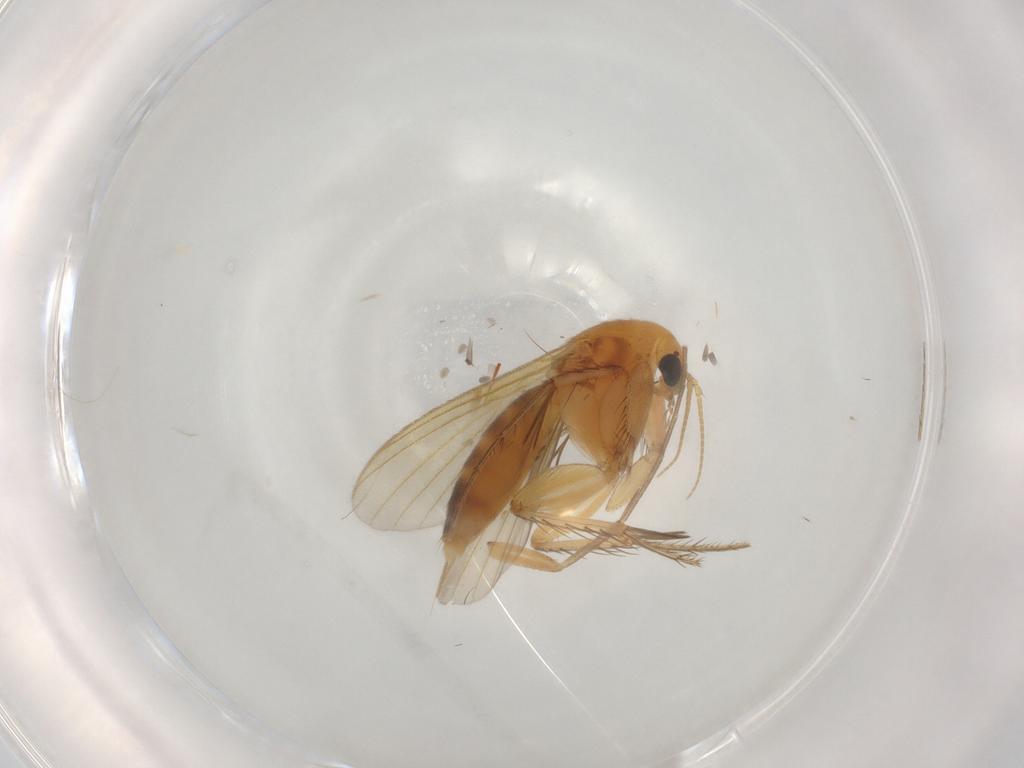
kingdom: Animalia
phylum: Arthropoda
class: Insecta
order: Diptera
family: Mycetophilidae
